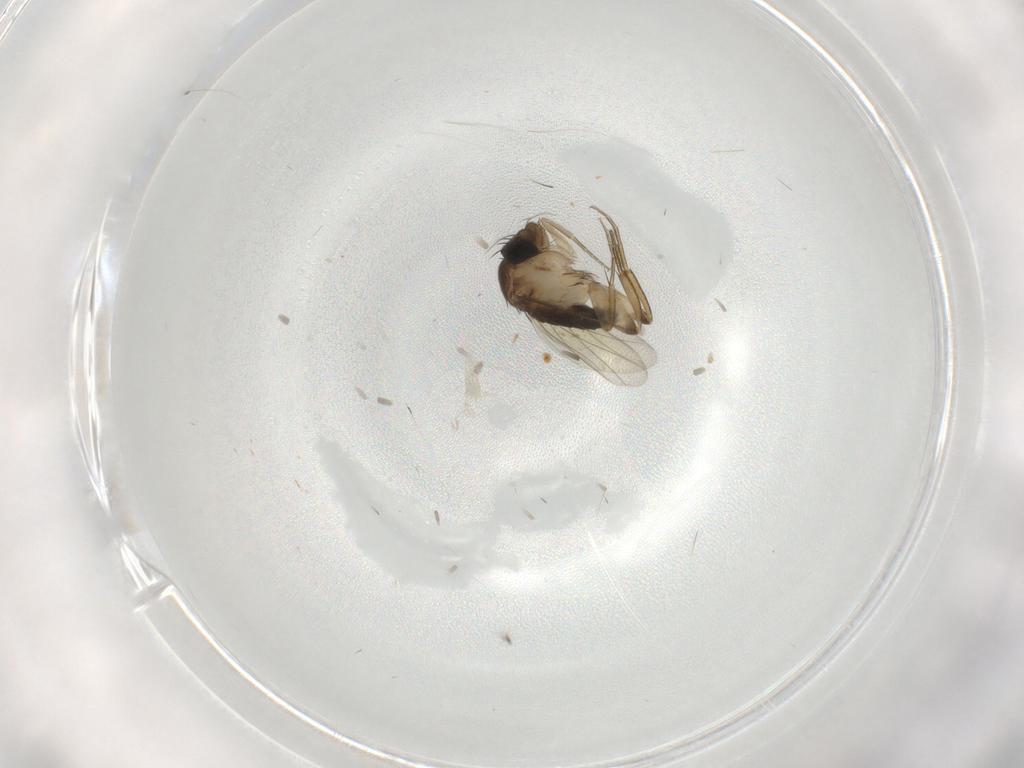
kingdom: Animalia
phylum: Arthropoda
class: Insecta
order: Diptera
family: Phoridae
